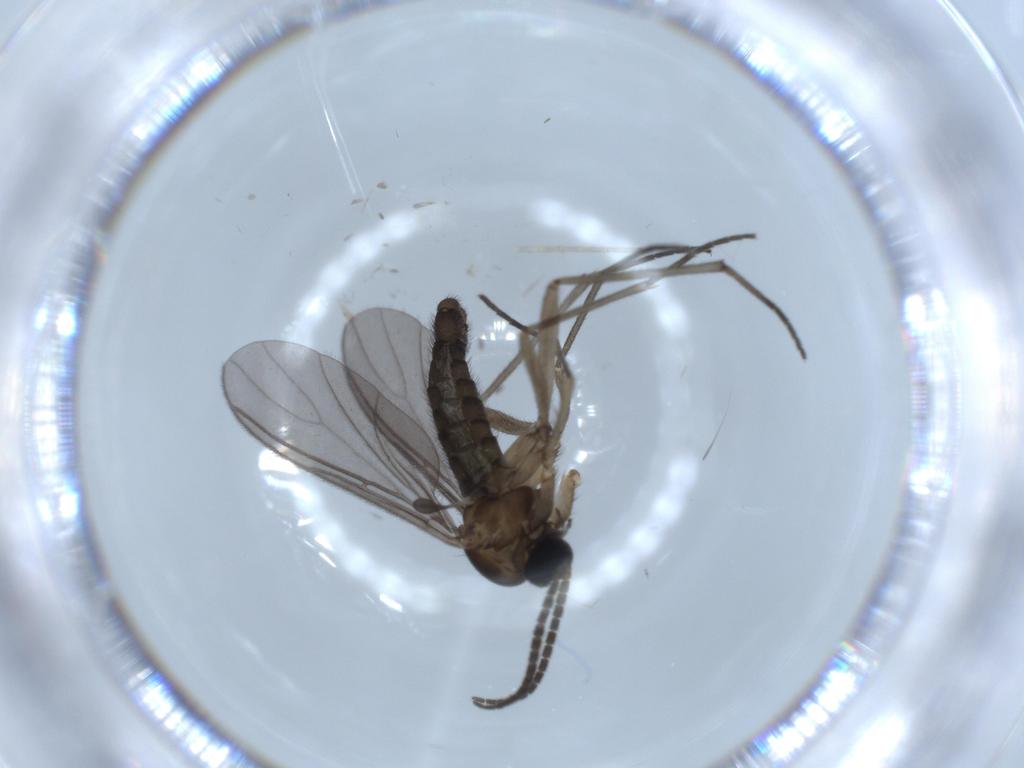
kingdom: Animalia
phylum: Arthropoda
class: Insecta
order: Diptera
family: Sciaridae
